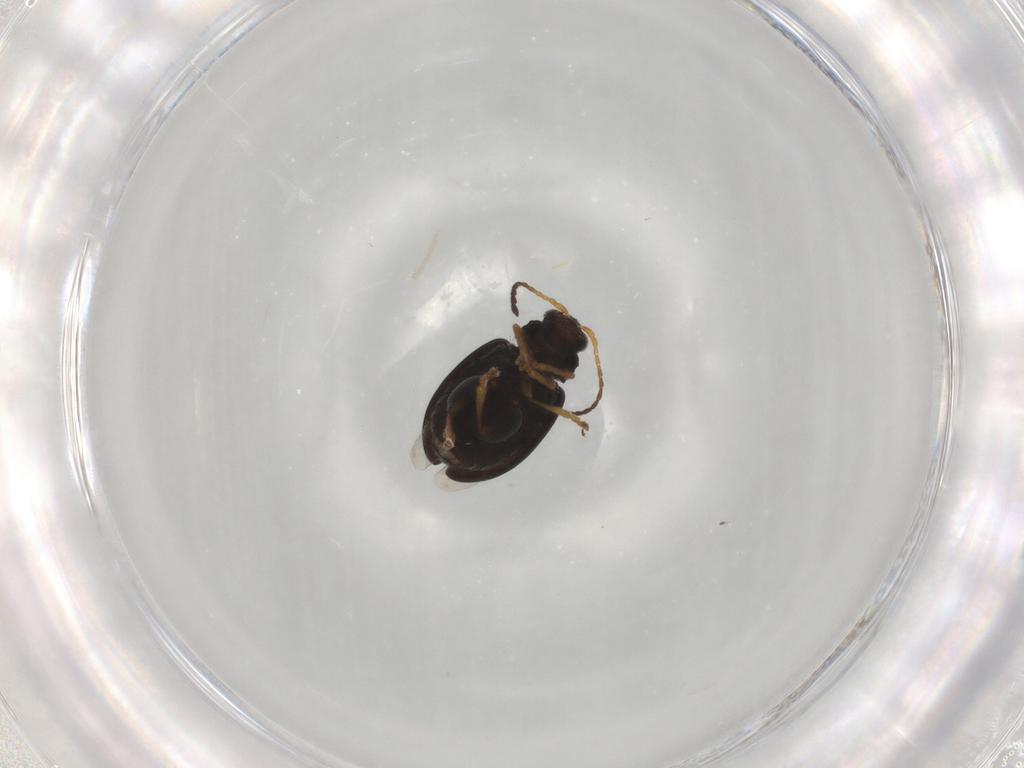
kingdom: Animalia
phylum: Arthropoda
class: Insecta
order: Coleoptera
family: Chrysomelidae
